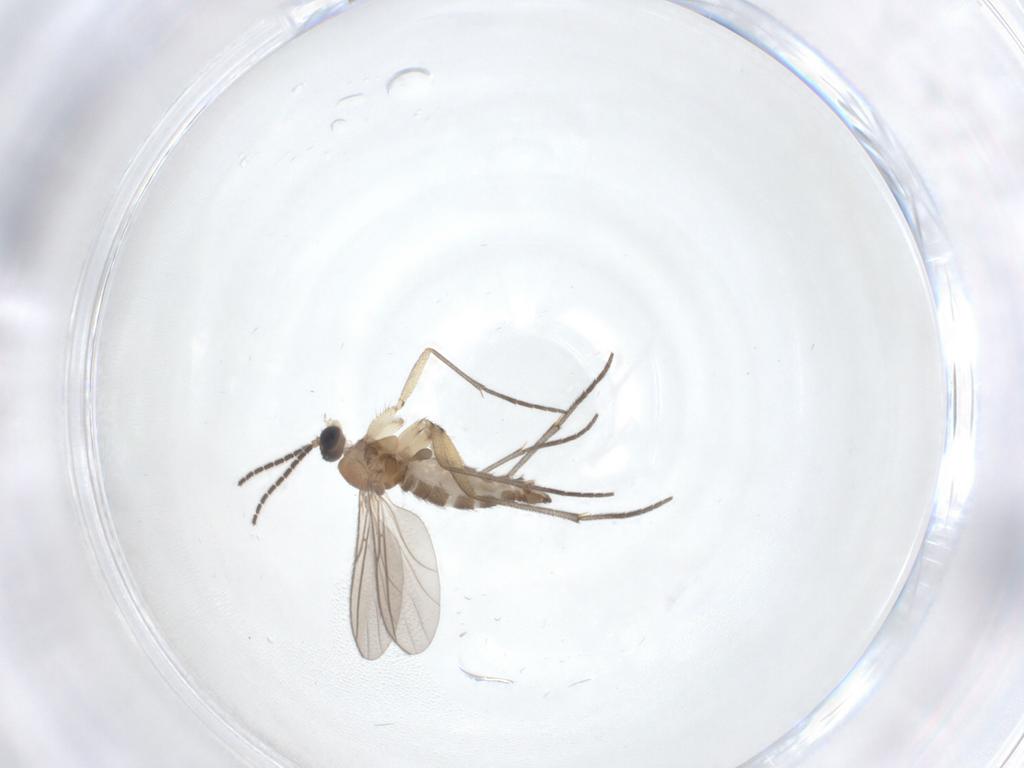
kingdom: Animalia
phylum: Arthropoda
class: Insecta
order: Diptera
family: Sciaridae
